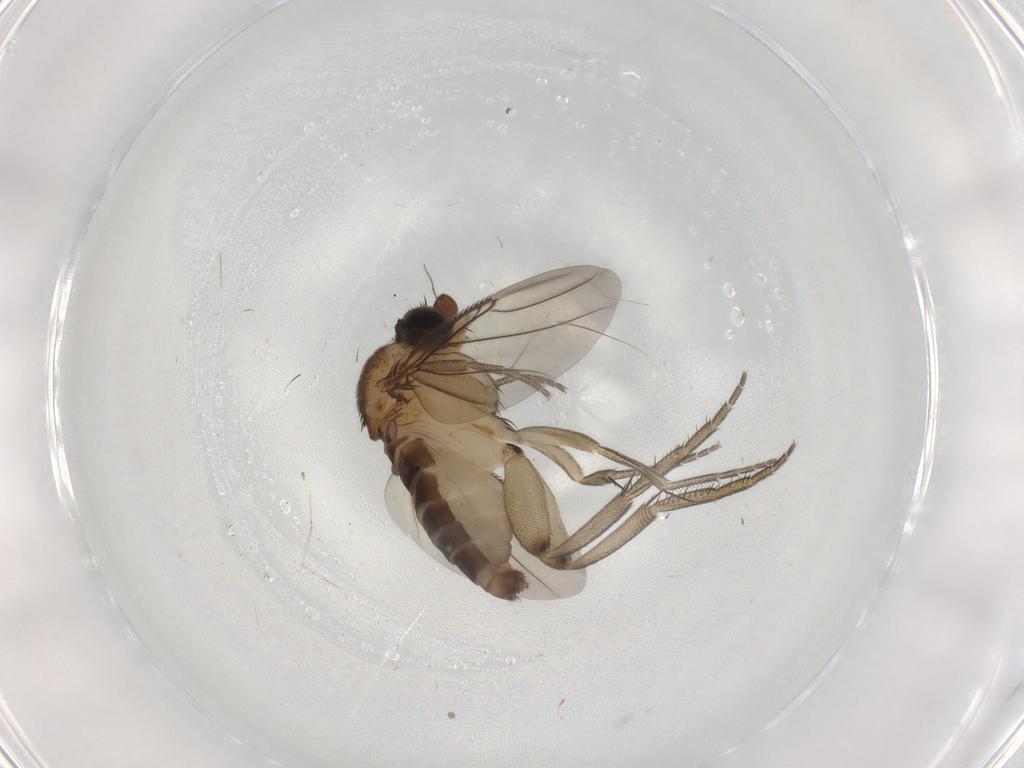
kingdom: Animalia
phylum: Arthropoda
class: Insecta
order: Diptera
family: Phoridae
